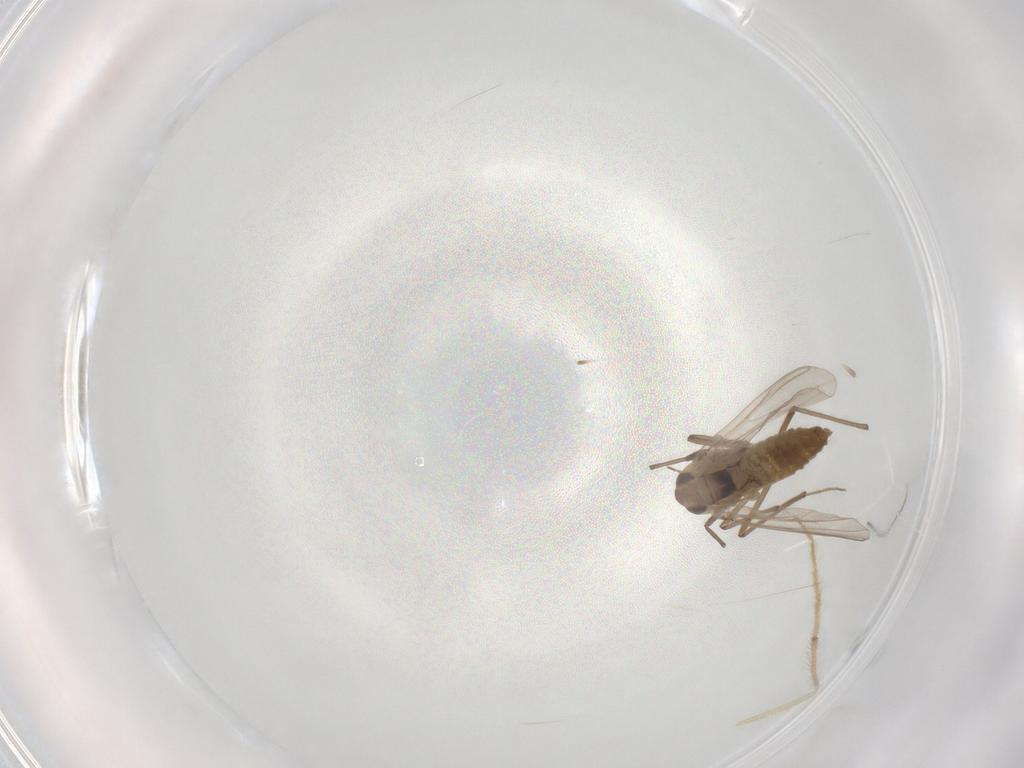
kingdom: Animalia
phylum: Arthropoda
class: Insecta
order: Diptera
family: Chironomidae
